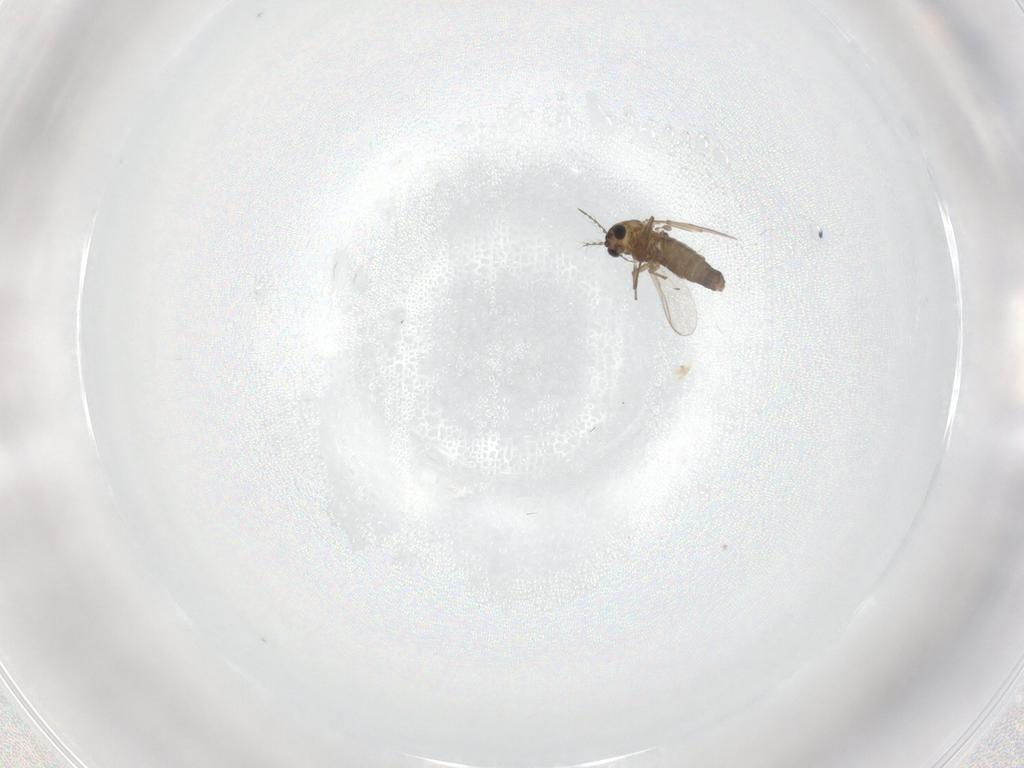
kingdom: Animalia
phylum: Arthropoda
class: Insecta
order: Diptera
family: Chironomidae
